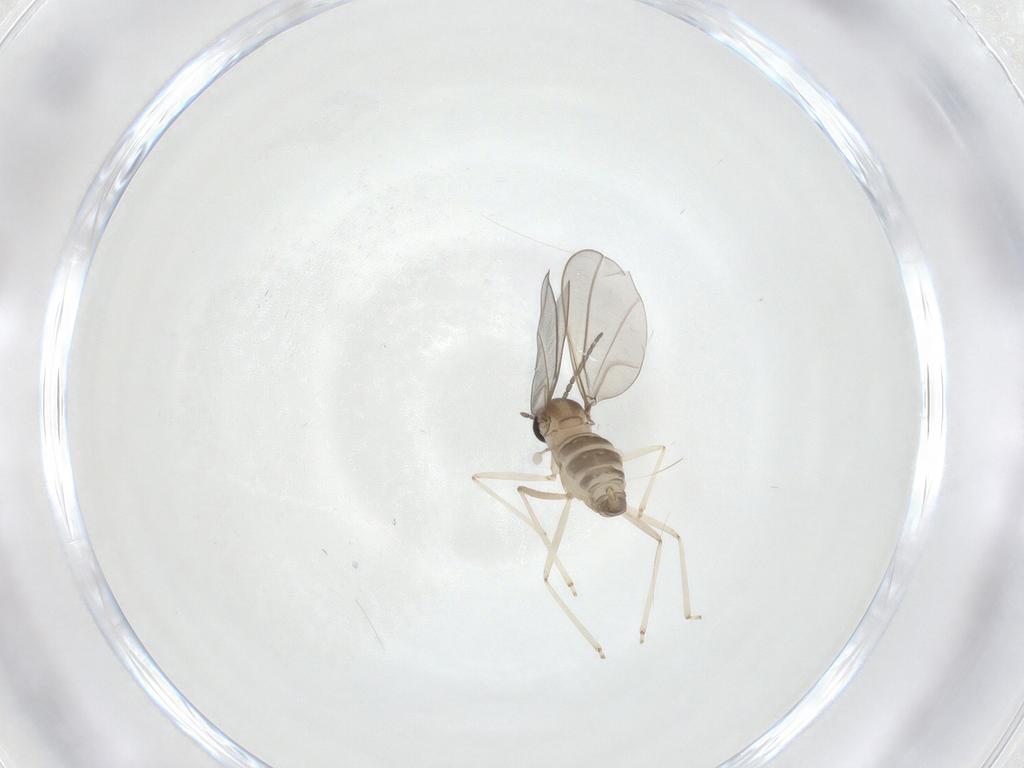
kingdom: Animalia
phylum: Arthropoda
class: Insecta
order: Diptera
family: Cecidomyiidae
